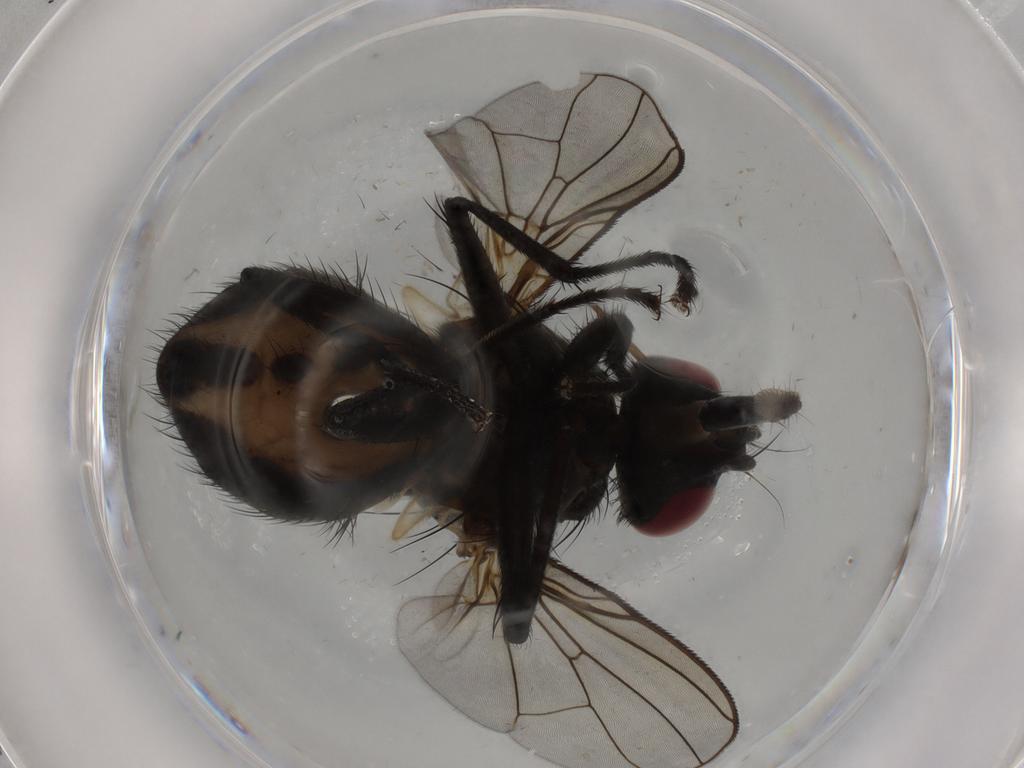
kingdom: Animalia
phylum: Arthropoda
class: Insecta
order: Diptera
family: Muscidae
